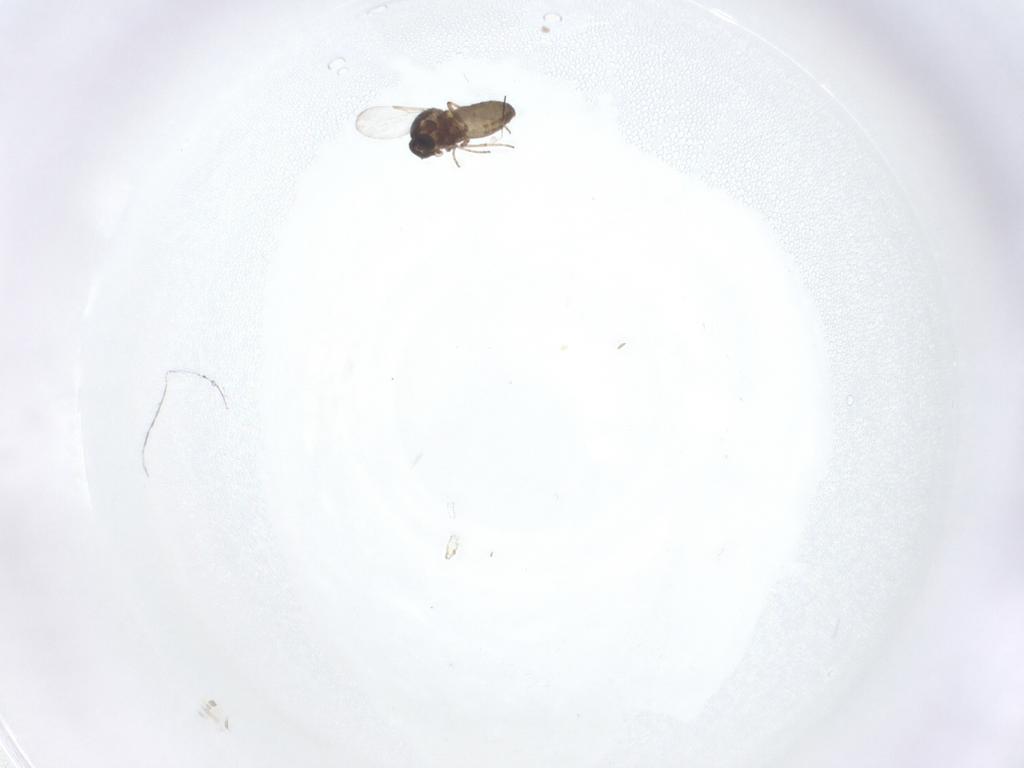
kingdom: Animalia
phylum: Arthropoda
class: Insecta
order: Diptera
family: Ceratopogonidae
